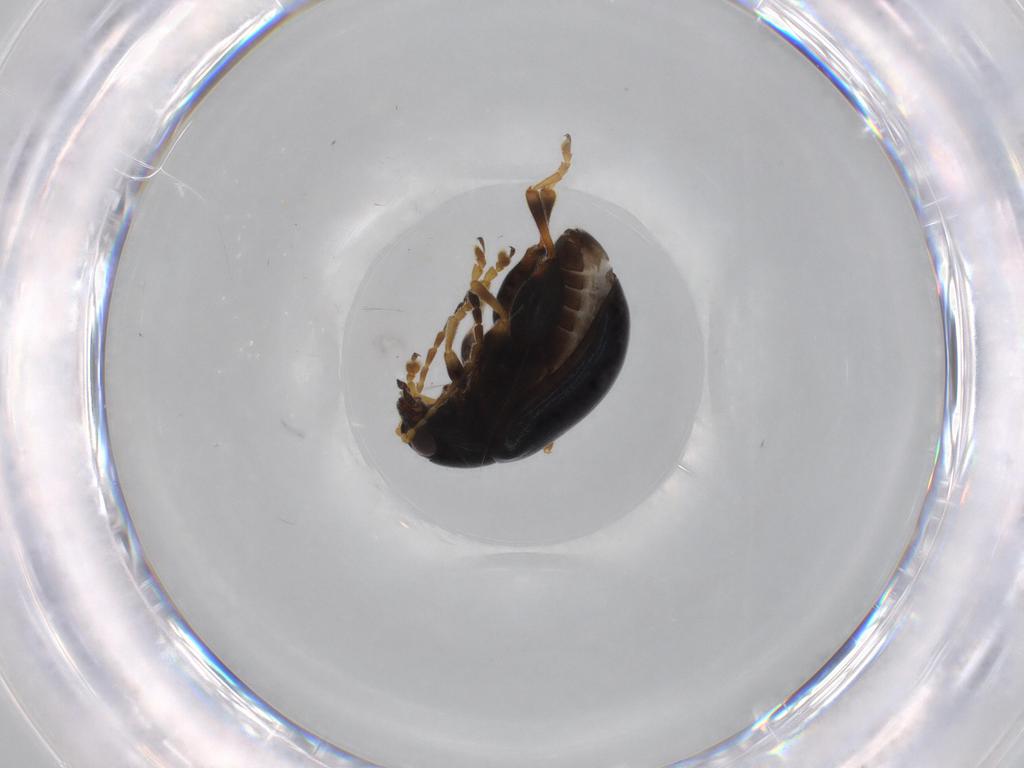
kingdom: Animalia
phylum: Arthropoda
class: Insecta
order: Coleoptera
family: Chrysomelidae
